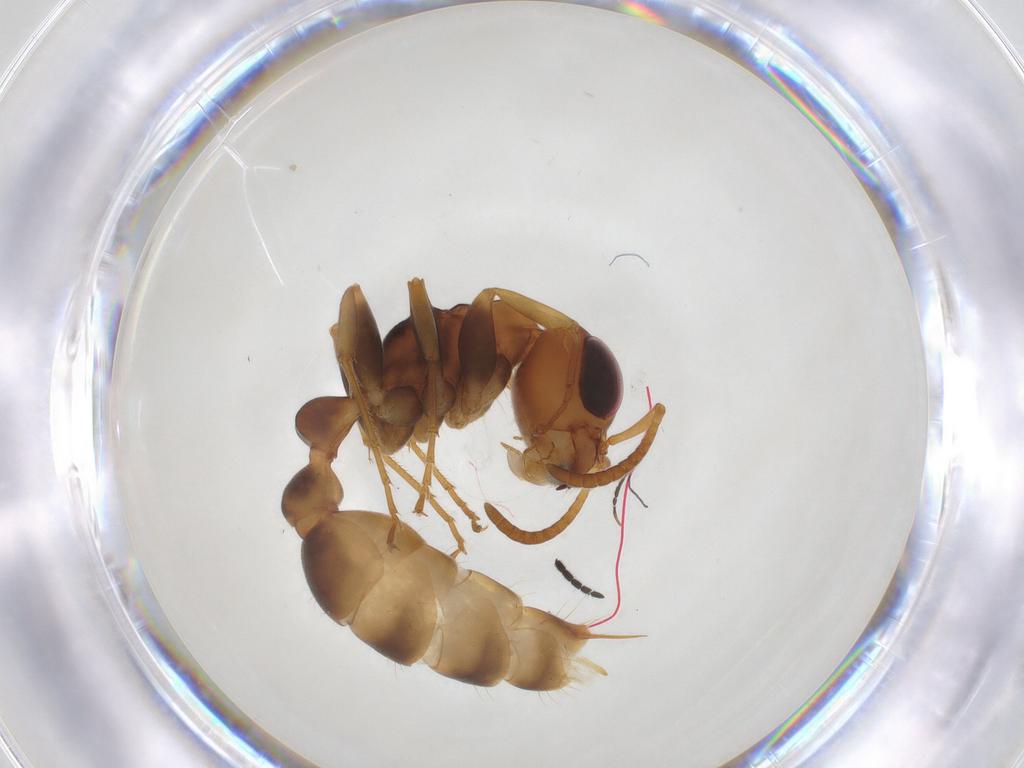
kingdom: Animalia
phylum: Arthropoda
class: Insecta
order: Hymenoptera
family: Formicidae
